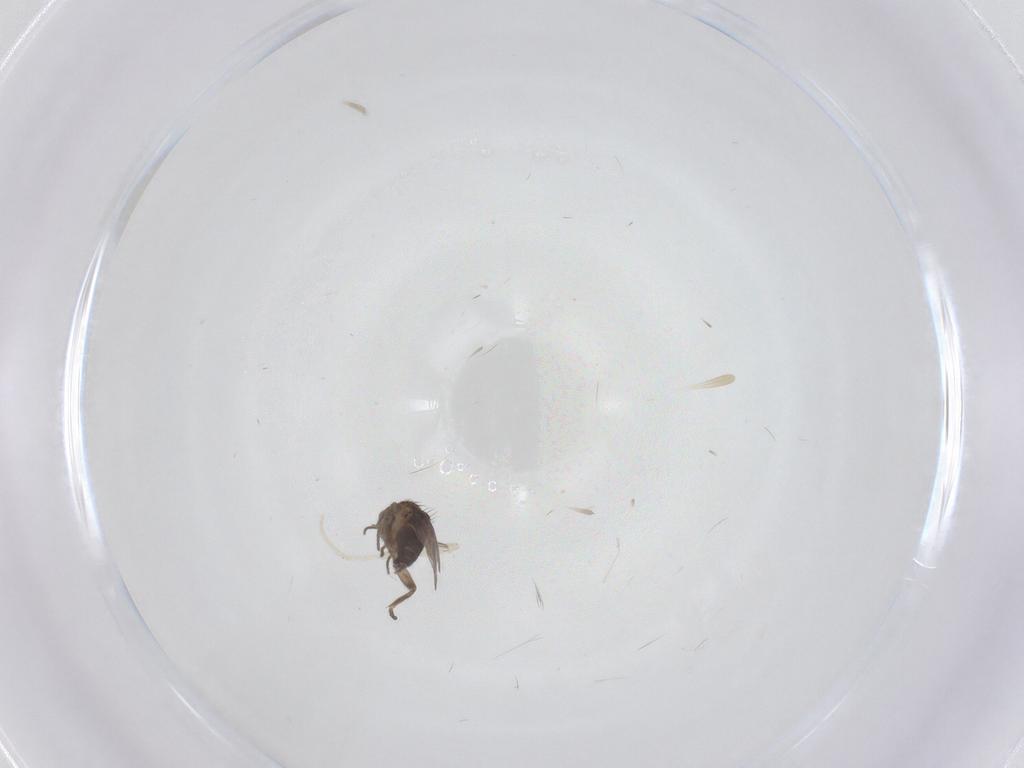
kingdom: Animalia
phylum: Arthropoda
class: Insecta
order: Diptera
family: Phoridae
